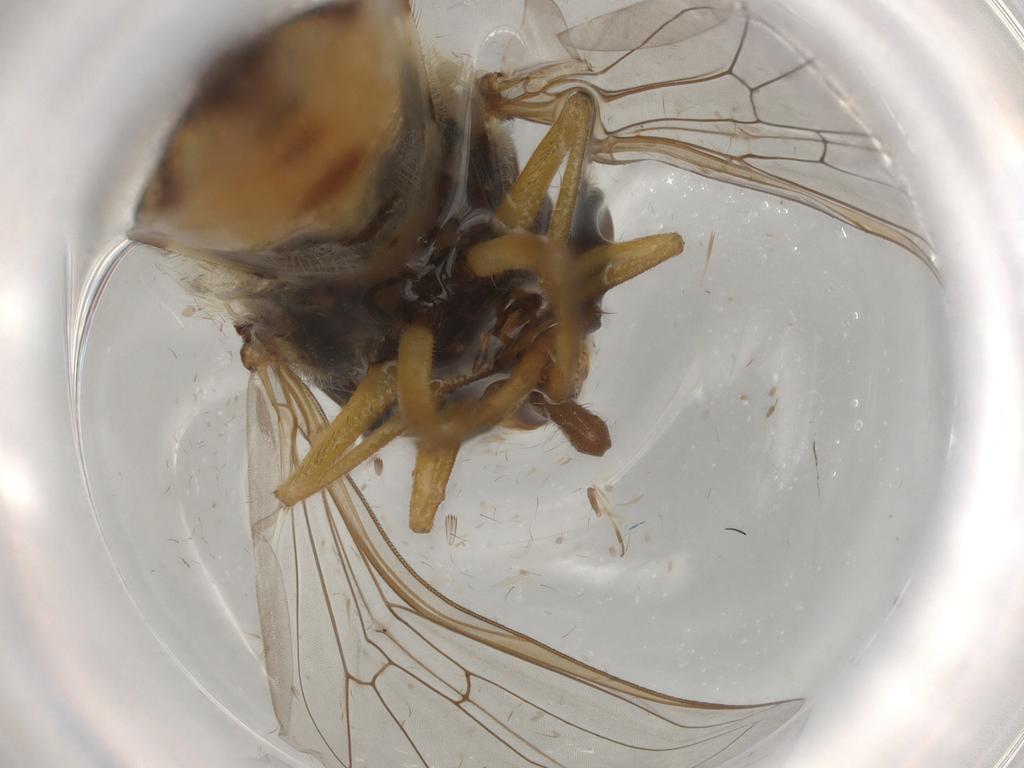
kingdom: Animalia
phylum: Arthropoda
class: Insecta
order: Diptera
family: Syrphidae
